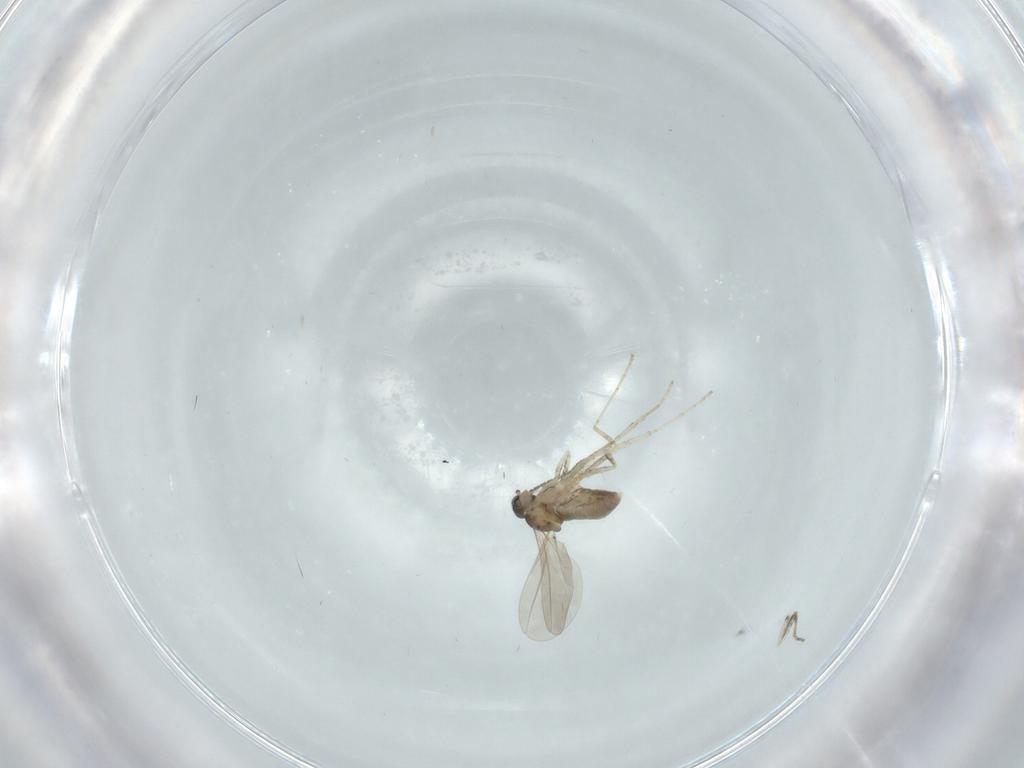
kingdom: Animalia
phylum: Arthropoda
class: Insecta
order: Diptera
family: Cecidomyiidae
